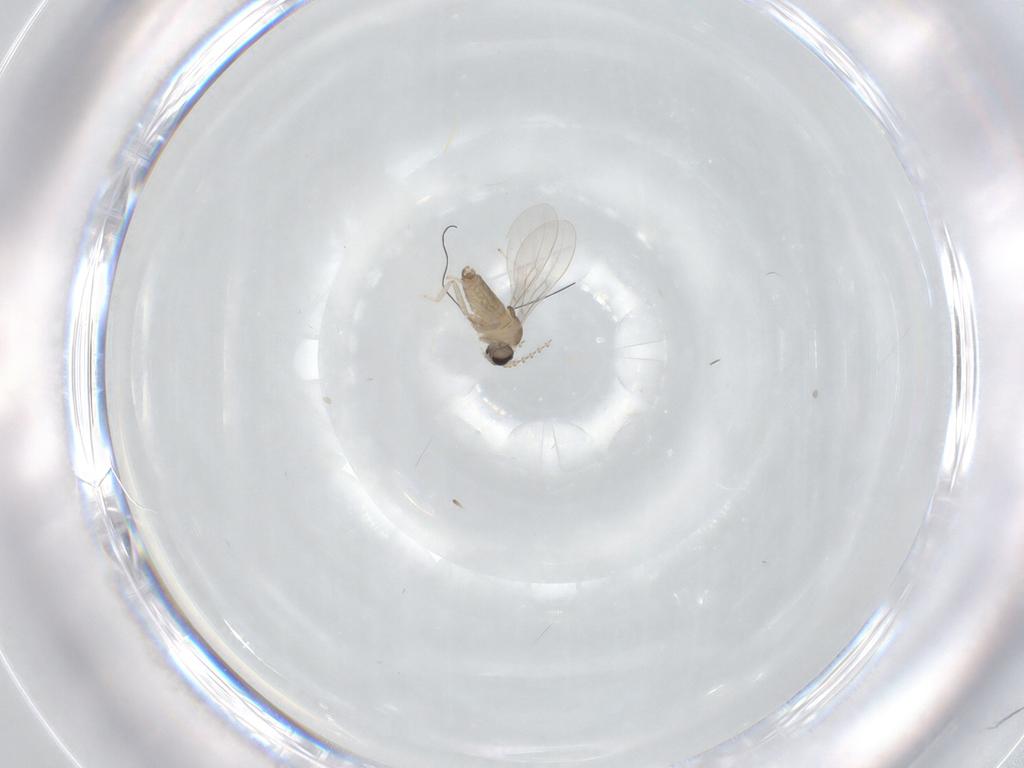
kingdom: Animalia
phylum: Arthropoda
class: Insecta
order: Diptera
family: Cecidomyiidae
